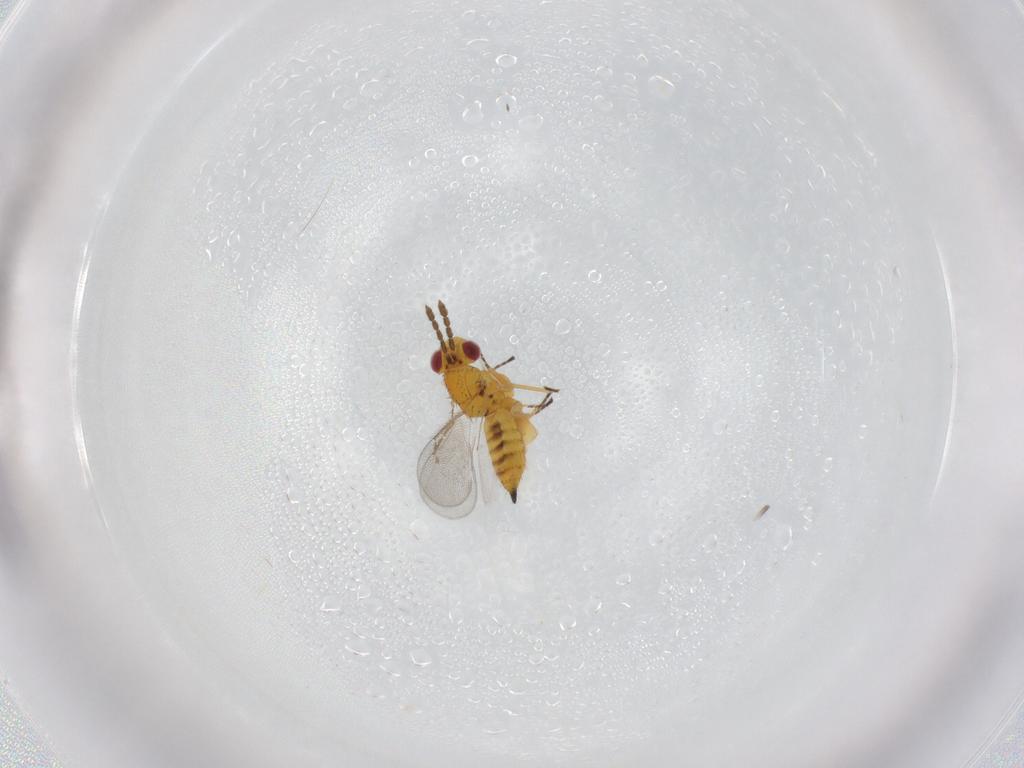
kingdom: Animalia
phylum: Arthropoda
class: Insecta
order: Hymenoptera
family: Eulophidae
